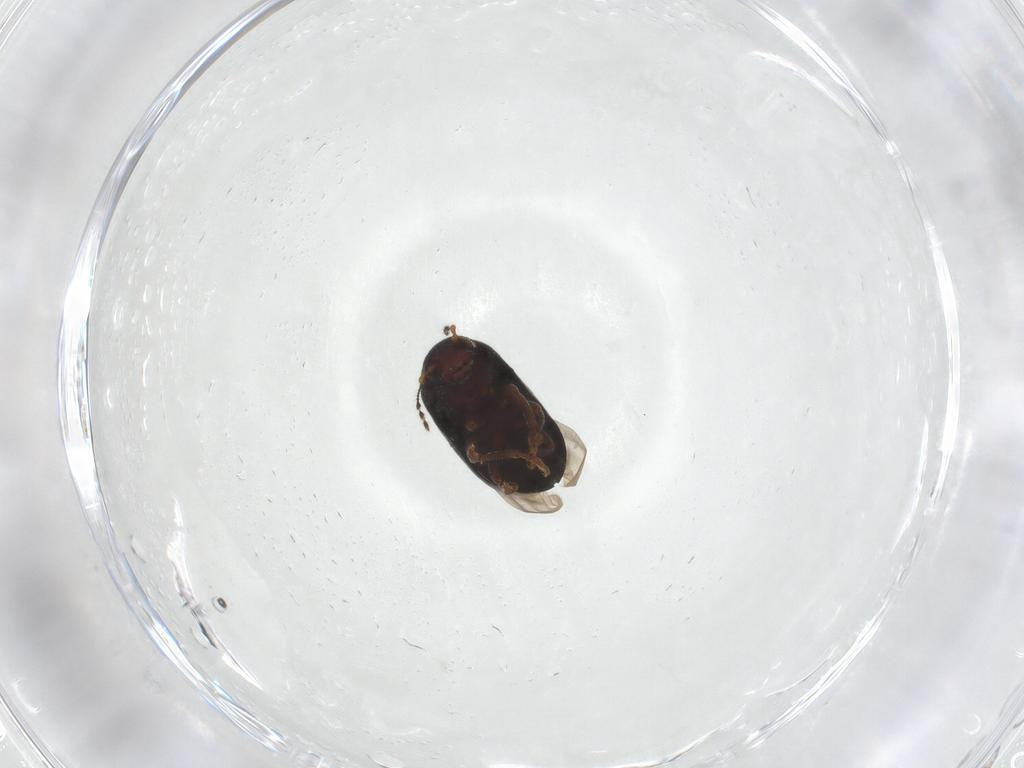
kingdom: Animalia
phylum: Arthropoda
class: Insecta
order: Coleoptera
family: Anthribidae
